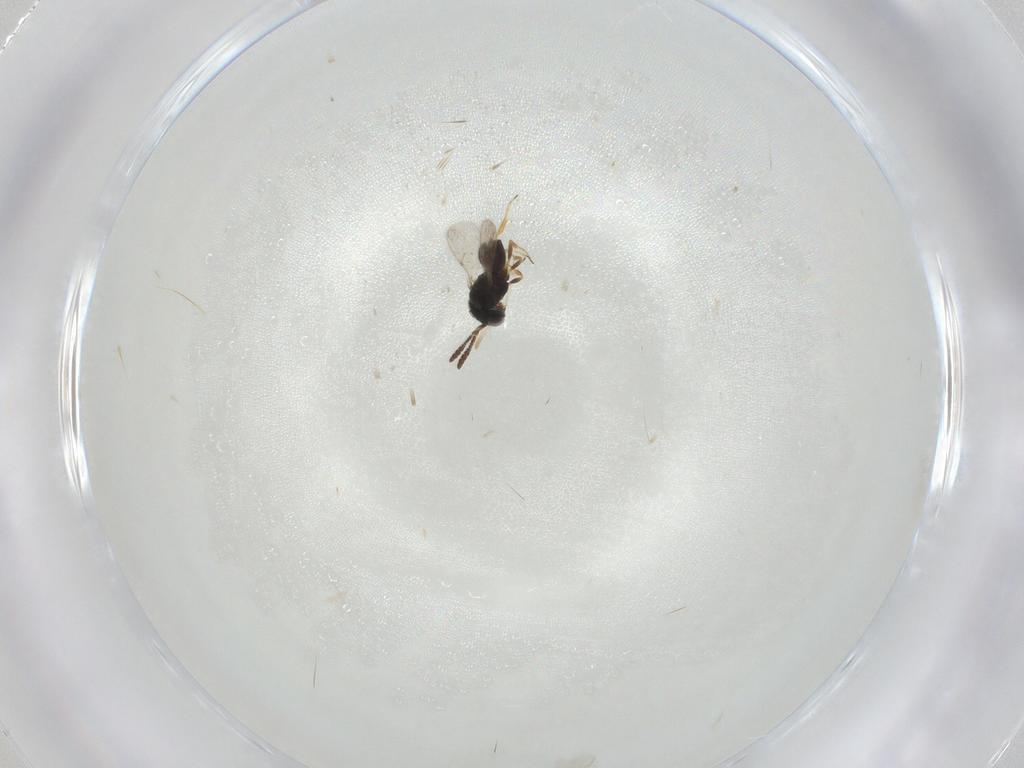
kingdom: Animalia
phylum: Arthropoda
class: Insecta
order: Hymenoptera
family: Scelionidae
